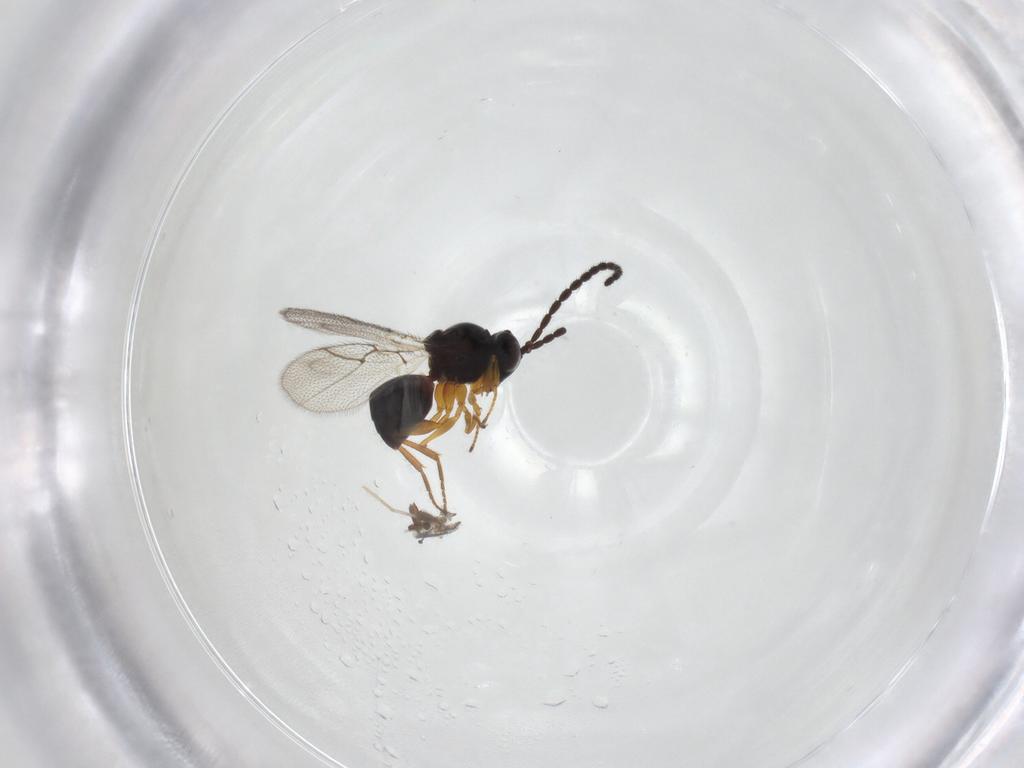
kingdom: Animalia
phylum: Arthropoda
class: Insecta
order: Hymenoptera
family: Figitidae
